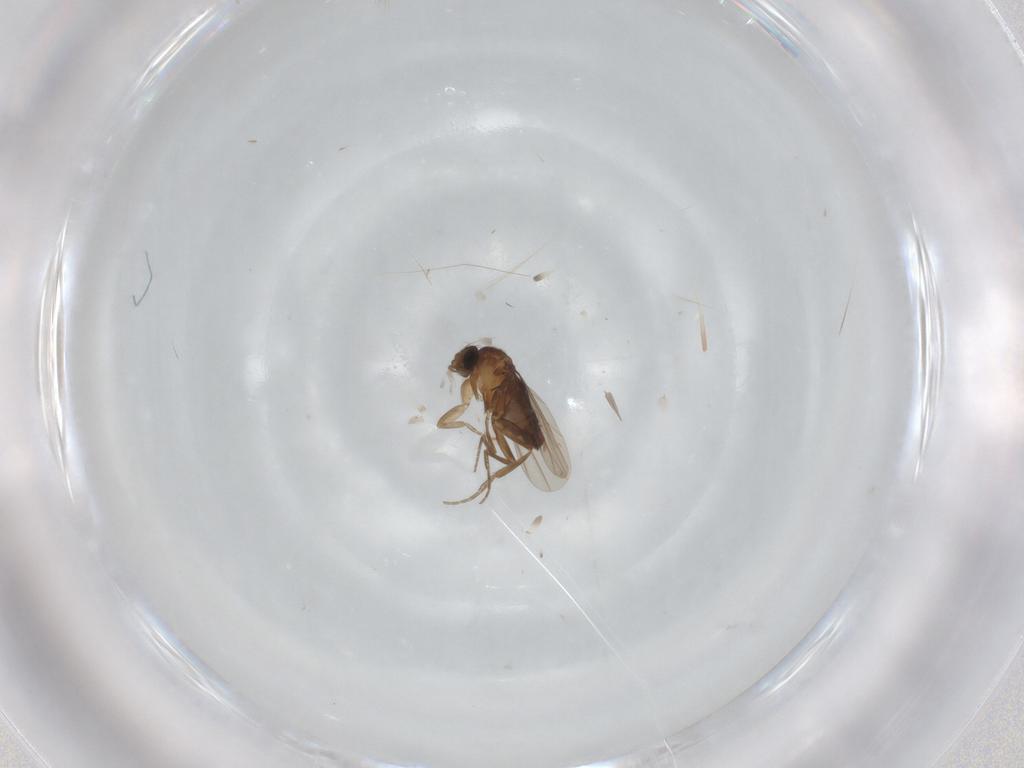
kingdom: Animalia
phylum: Arthropoda
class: Insecta
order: Diptera
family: Phoridae
